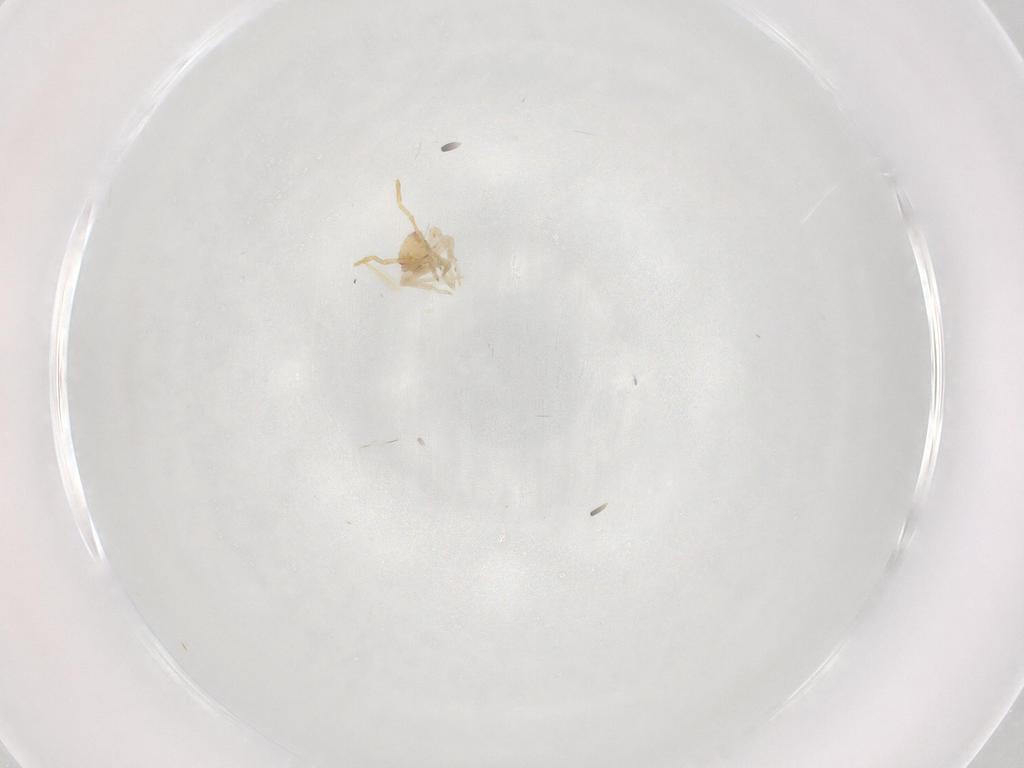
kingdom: Animalia
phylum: Arthropoda
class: Insecta
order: Hemiptera
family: Miridae
